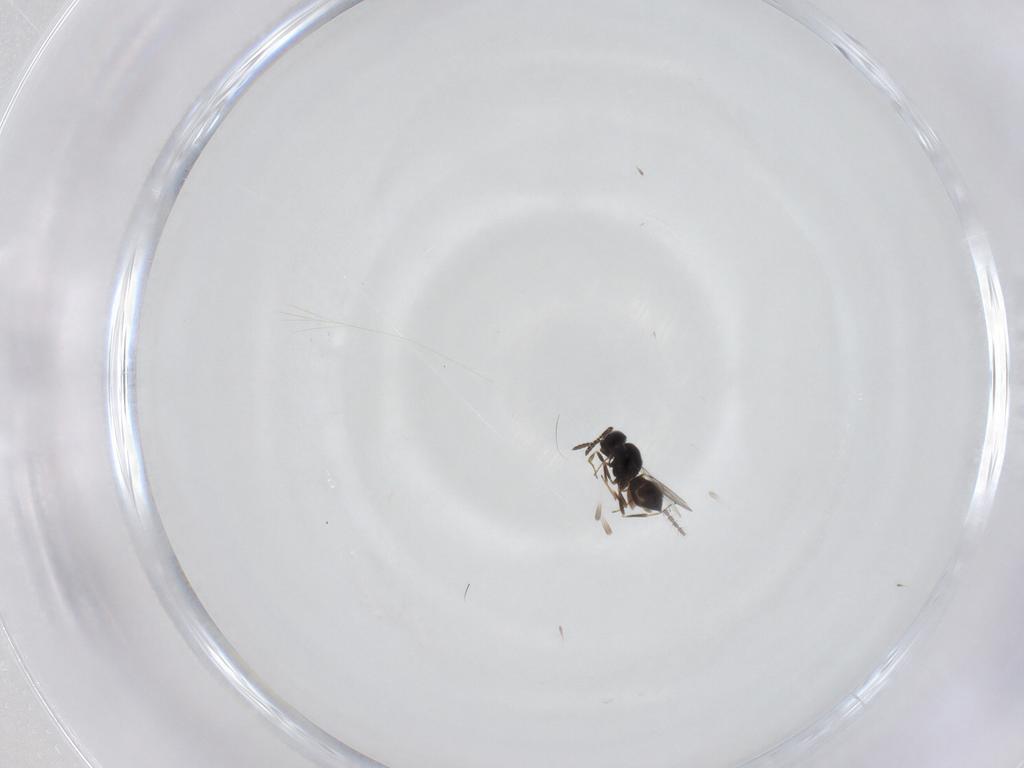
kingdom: Animalia
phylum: Arthropoda
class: Insecta
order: Hymenoptera
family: Scelionidae
